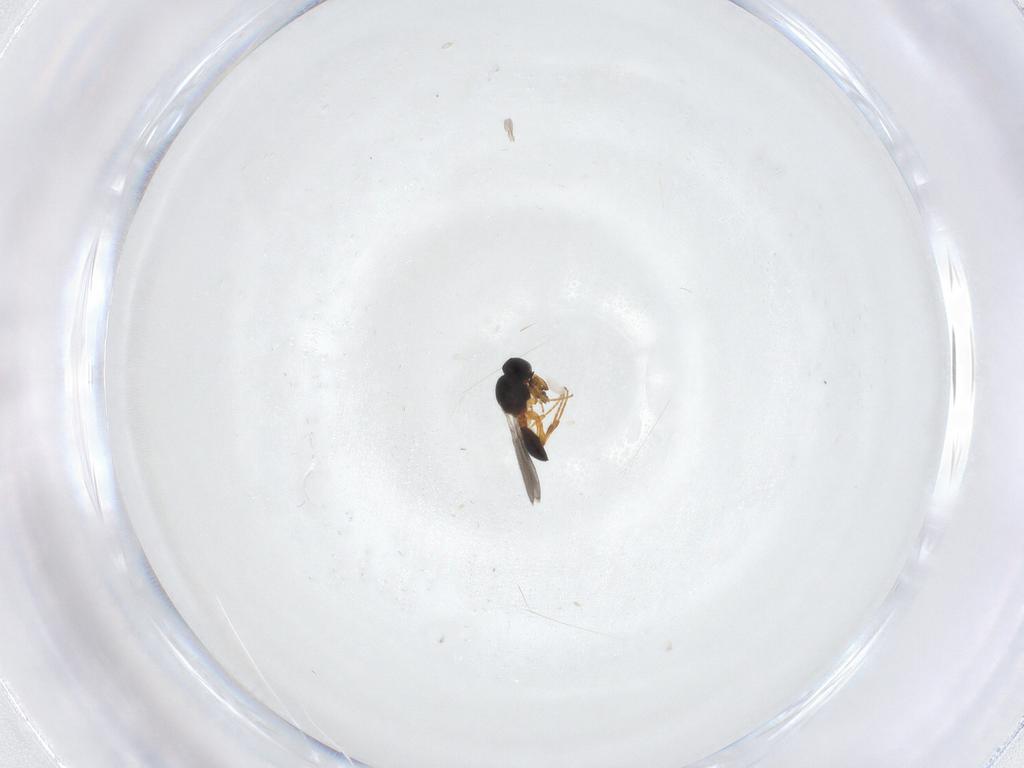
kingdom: Animalia
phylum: Arthropoda
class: Insecta
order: Hymenoptera
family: Platygastridae
